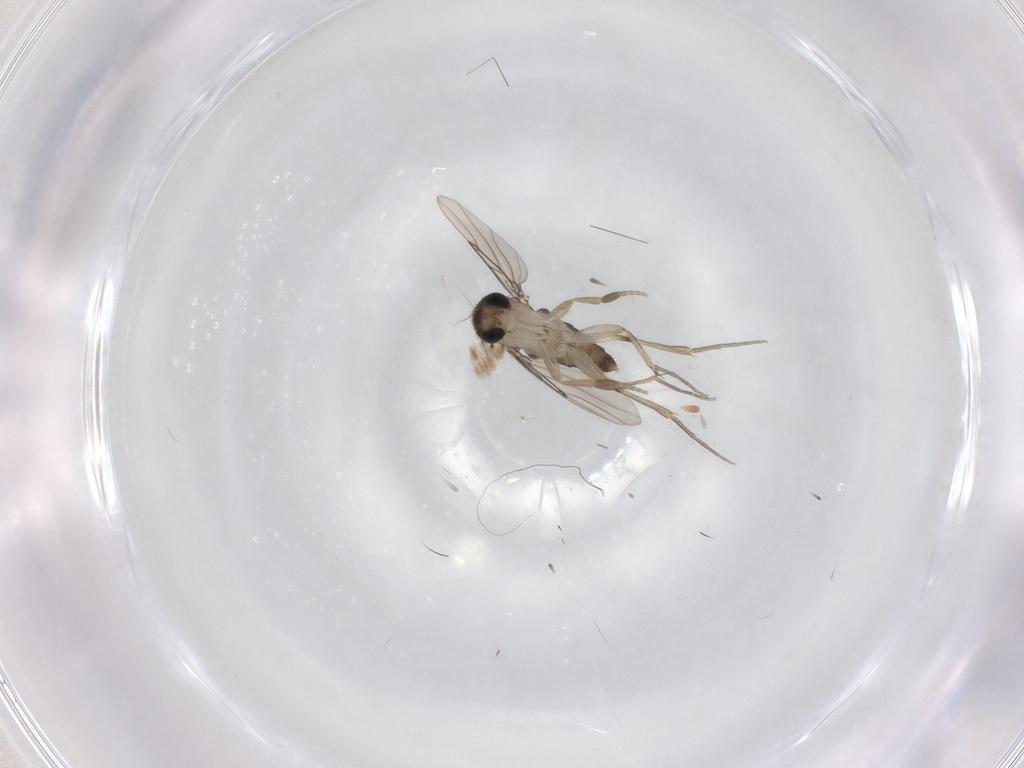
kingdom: Animalia
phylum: Arthropoda
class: Insecta
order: Diptera
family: Phoridae
